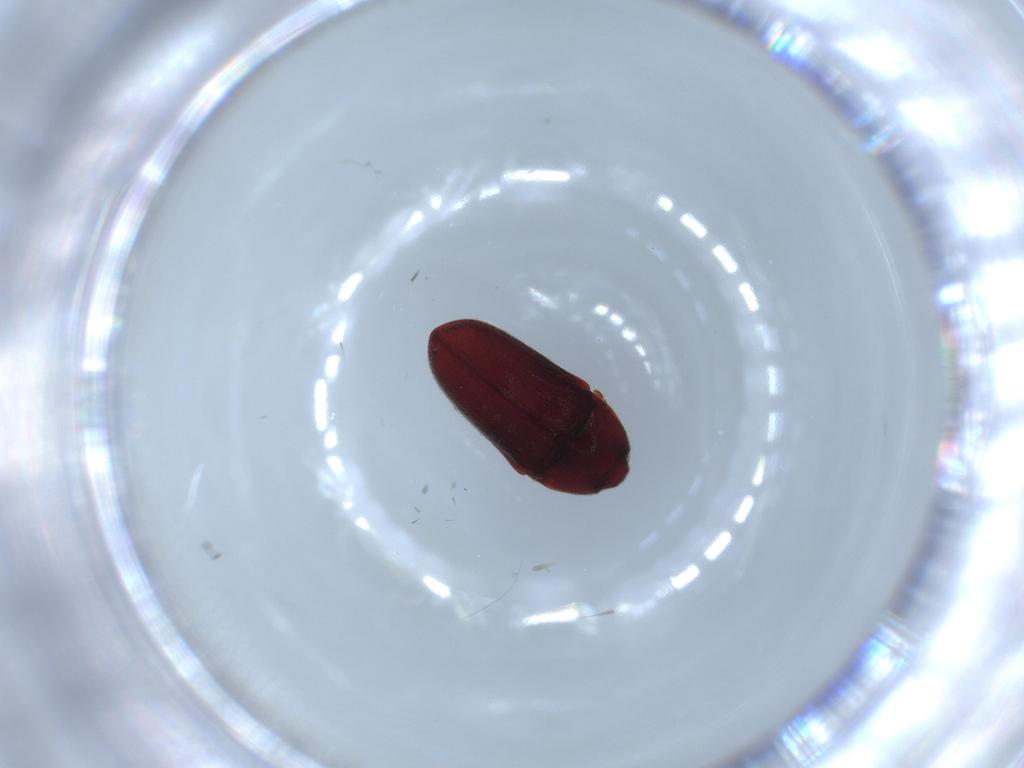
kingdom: Animalia
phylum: Arthropoda
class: Insecta
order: Coleoptera
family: Throscidae
